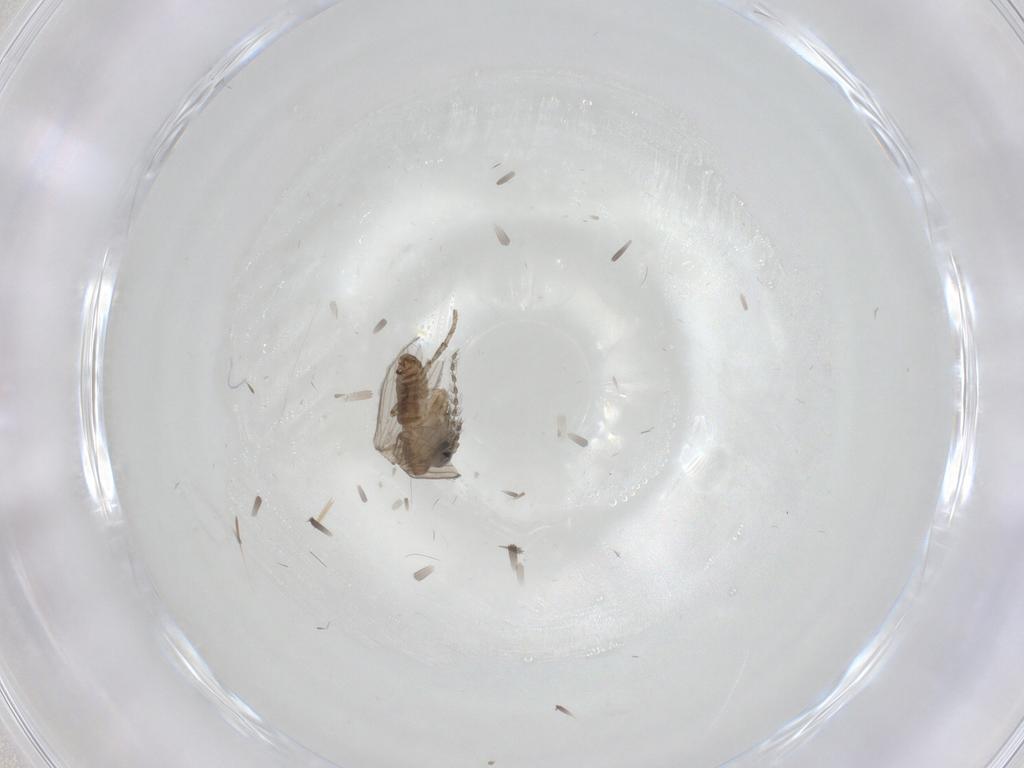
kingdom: Animalia
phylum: Arthropoda
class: Insecta
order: Diptera
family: Psychodidae
